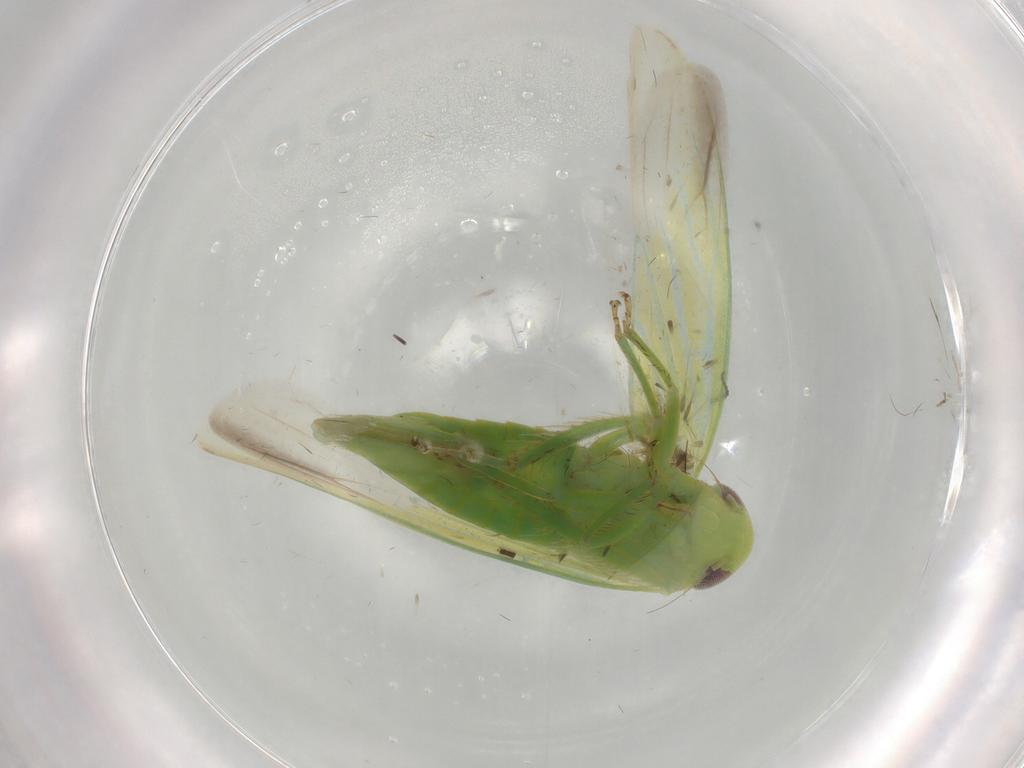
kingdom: Animalia
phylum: Arthropoda
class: Insecta
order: Hemiptera
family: Cicadellidae
